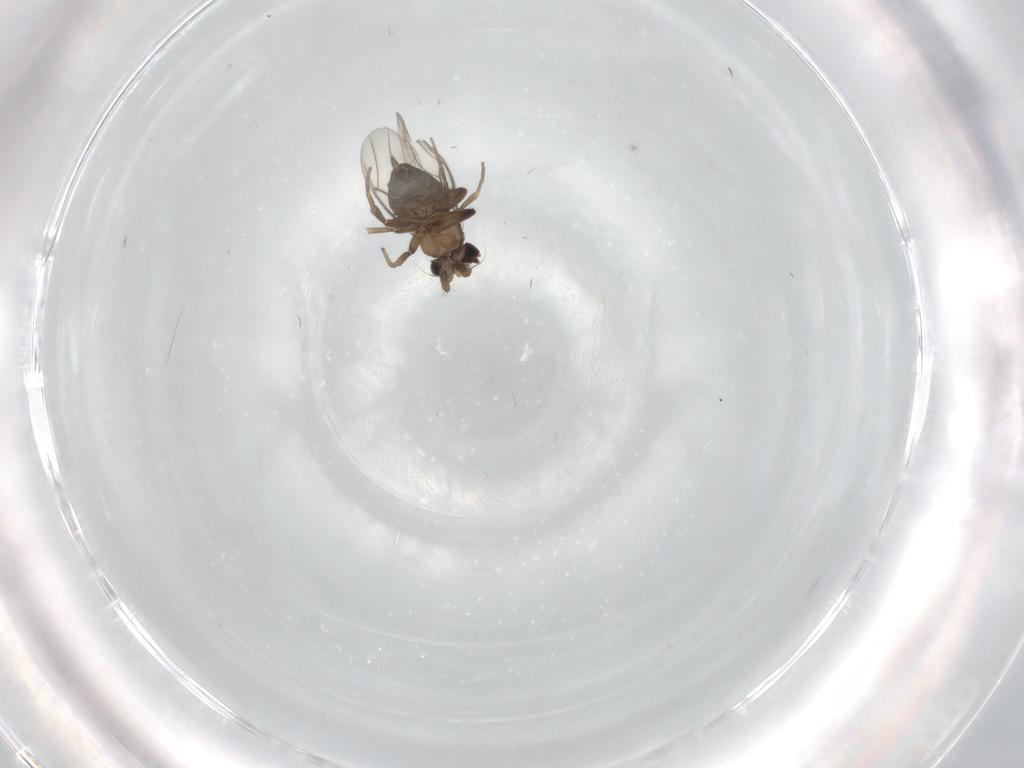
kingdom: Animalia
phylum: Arthropoda
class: Insecta
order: Diptera
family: Phoridae
